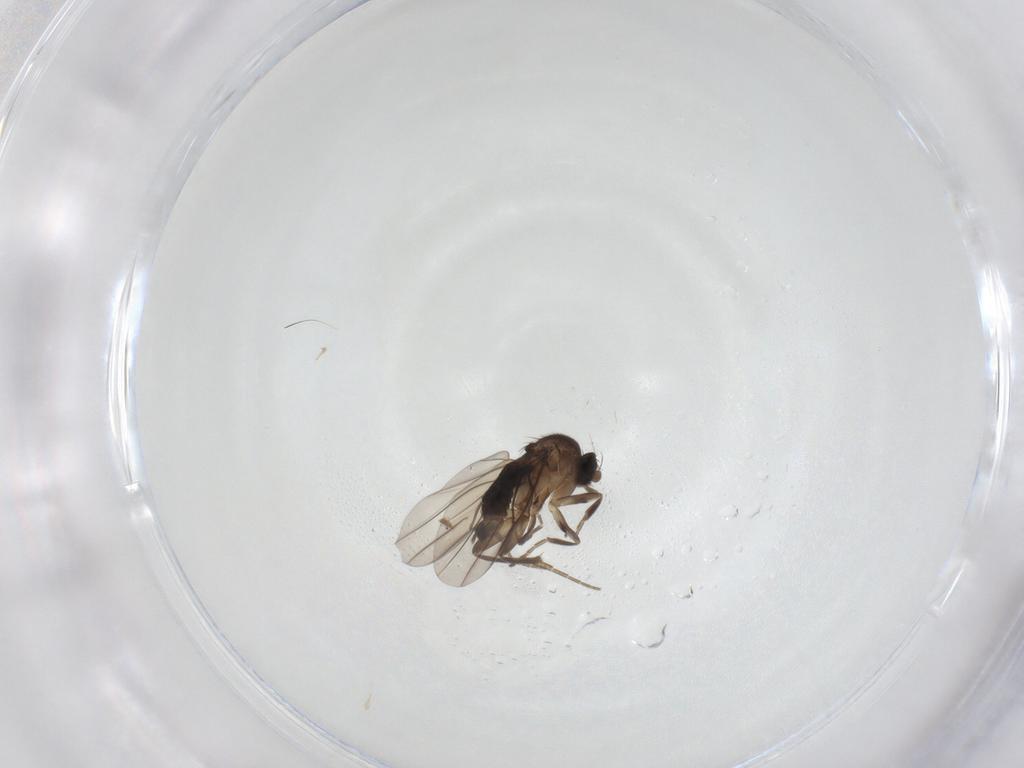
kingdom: Animalia
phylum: Arthropoda
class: Insecta
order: Diptera
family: Phoridae
